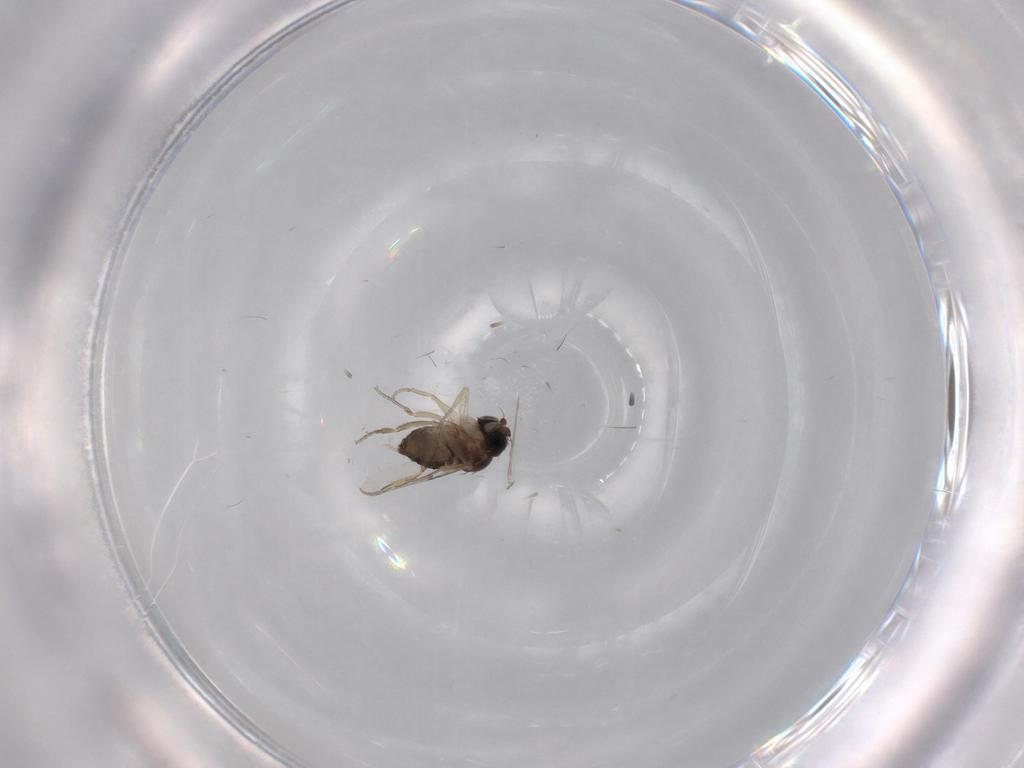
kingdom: Animalia
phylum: Arthropoda
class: Insecta
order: Diptera
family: Phoridae
